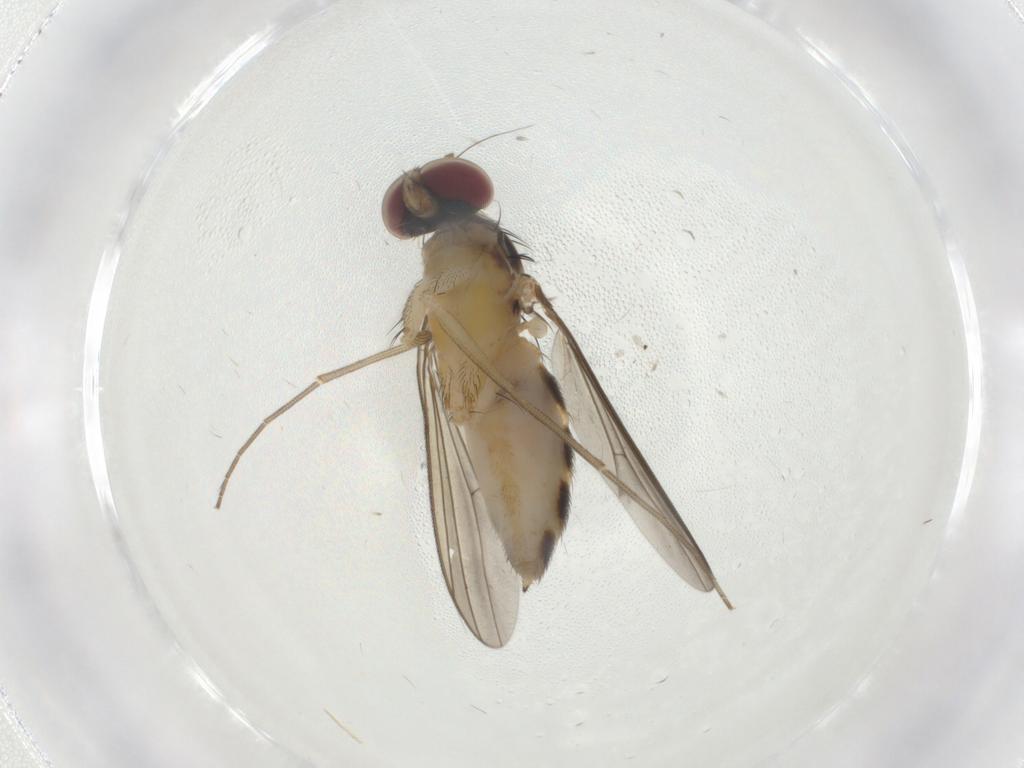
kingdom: Animalia
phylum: Arthropoda
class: Insecta
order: Diptera
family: Dolichopodidae
